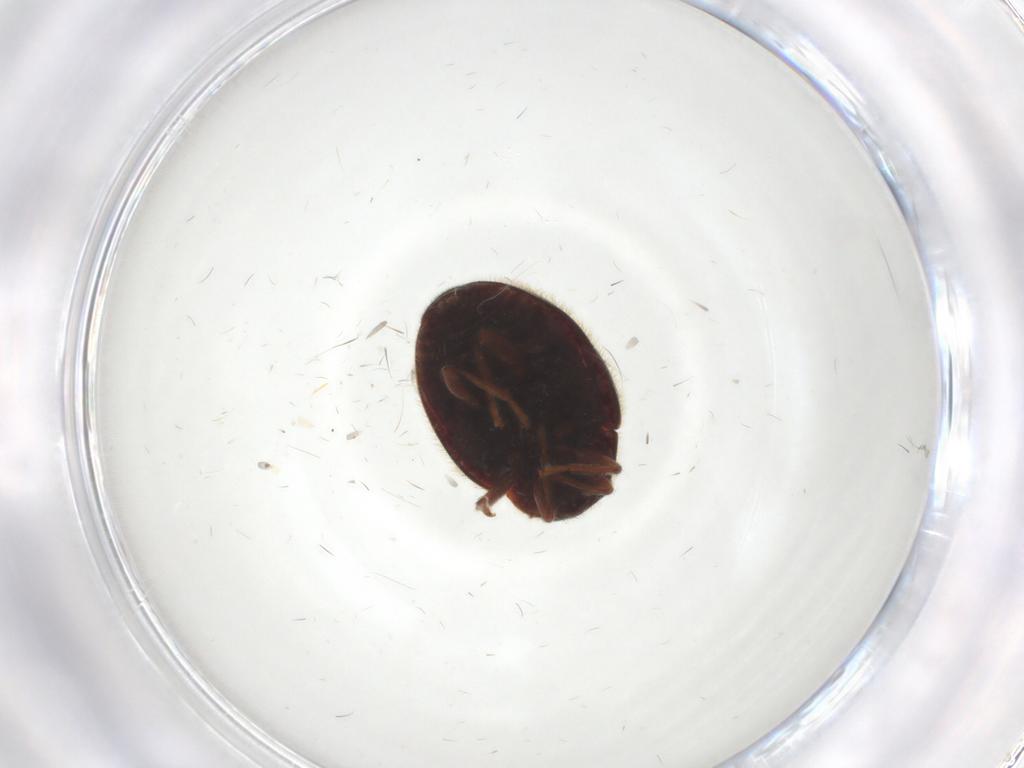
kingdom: Animalia
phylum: Arthropoda
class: Insecta
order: Coleoptera
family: Coccinellidae
